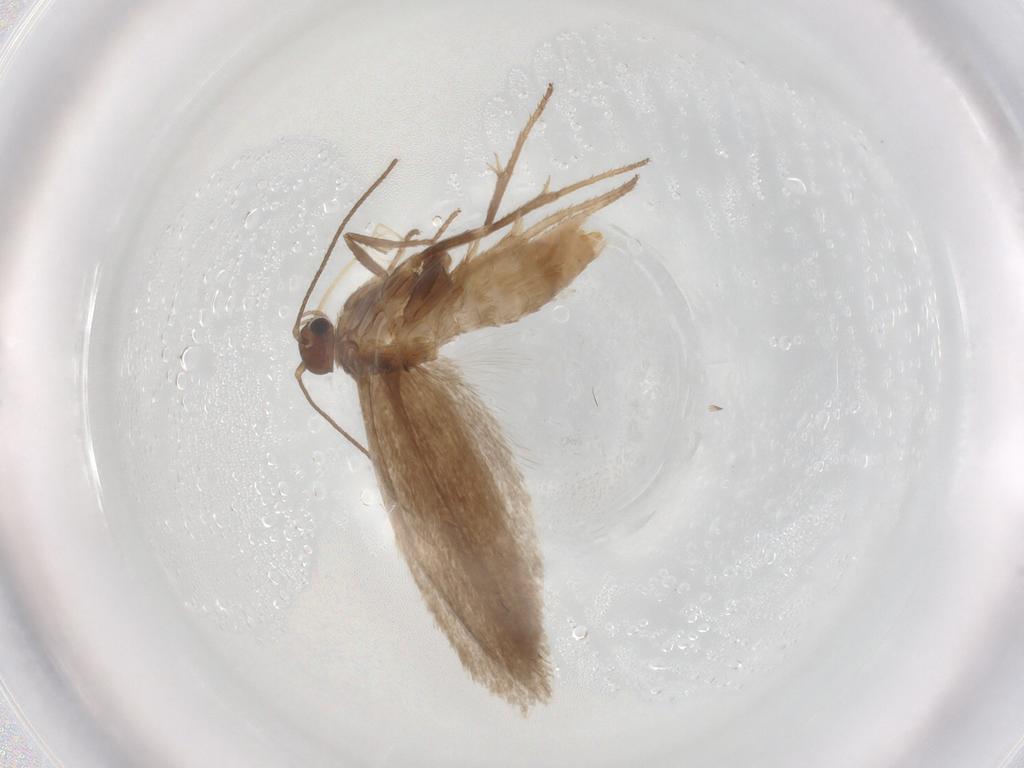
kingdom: Animalia
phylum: Arthropoda
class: Insecta
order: Lepidoptera
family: Limacodidae
